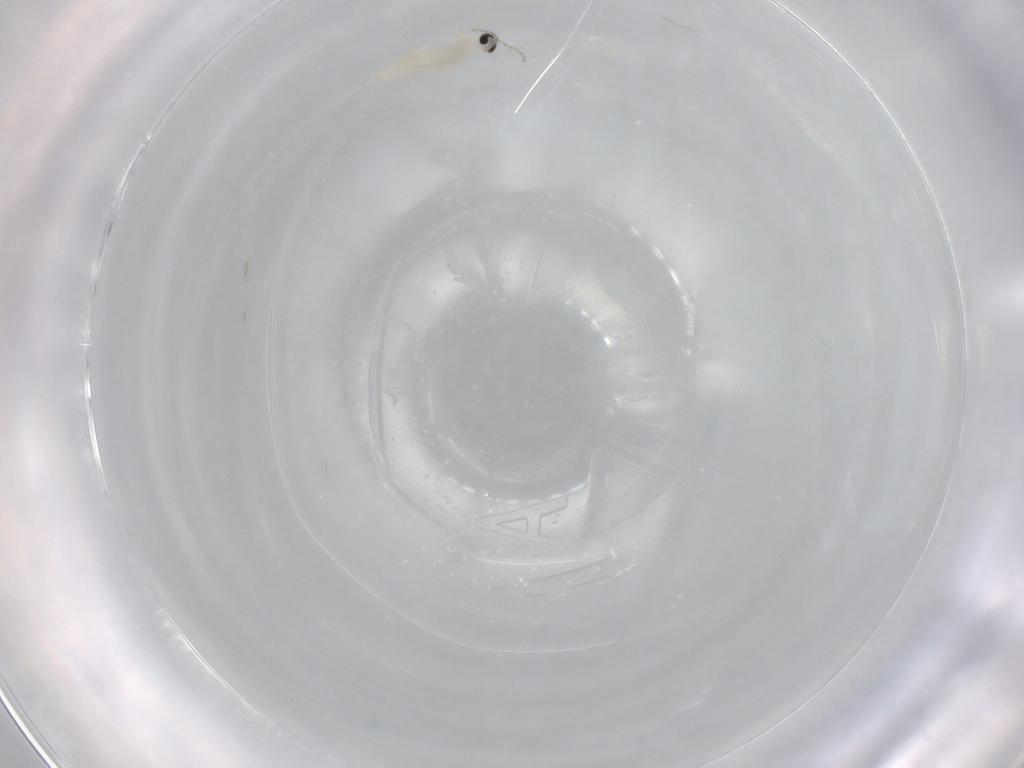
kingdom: Animalia
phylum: Arthropoda
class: Insecta
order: Diptera
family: Cecidomyiidae
